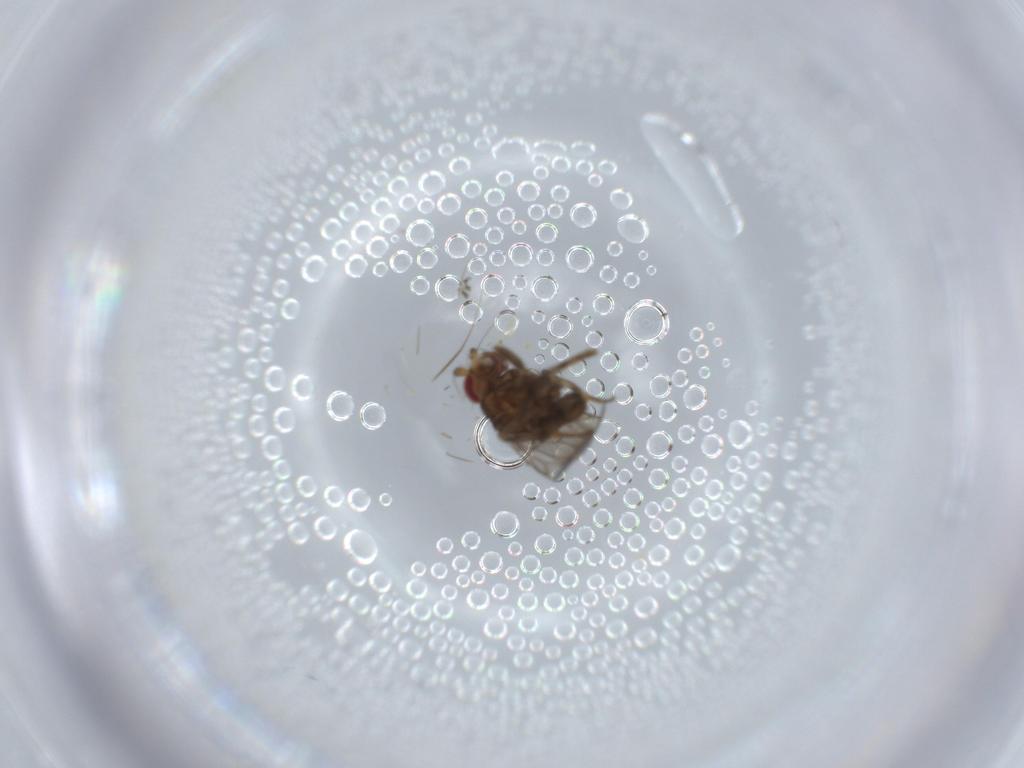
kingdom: Animalia
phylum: Arthropoda
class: Insecta
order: Diptera
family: Sphaeroceridae
